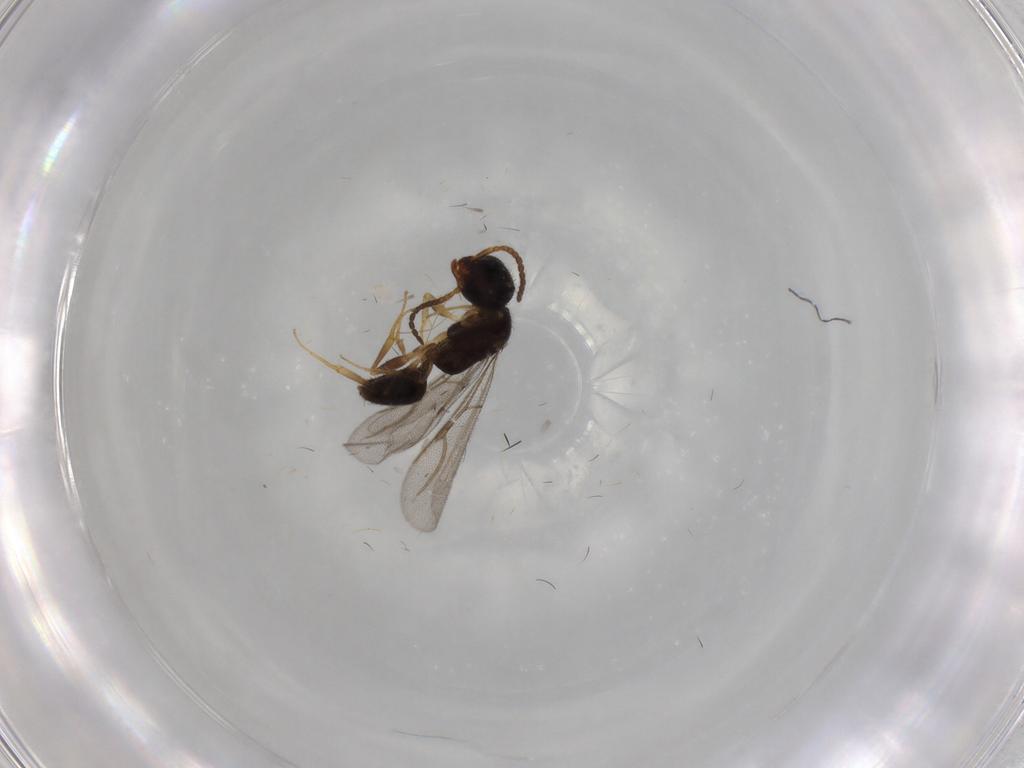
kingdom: Animalia
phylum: Arthropoda
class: Insecta
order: Hymenoptera
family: Bethylidae
